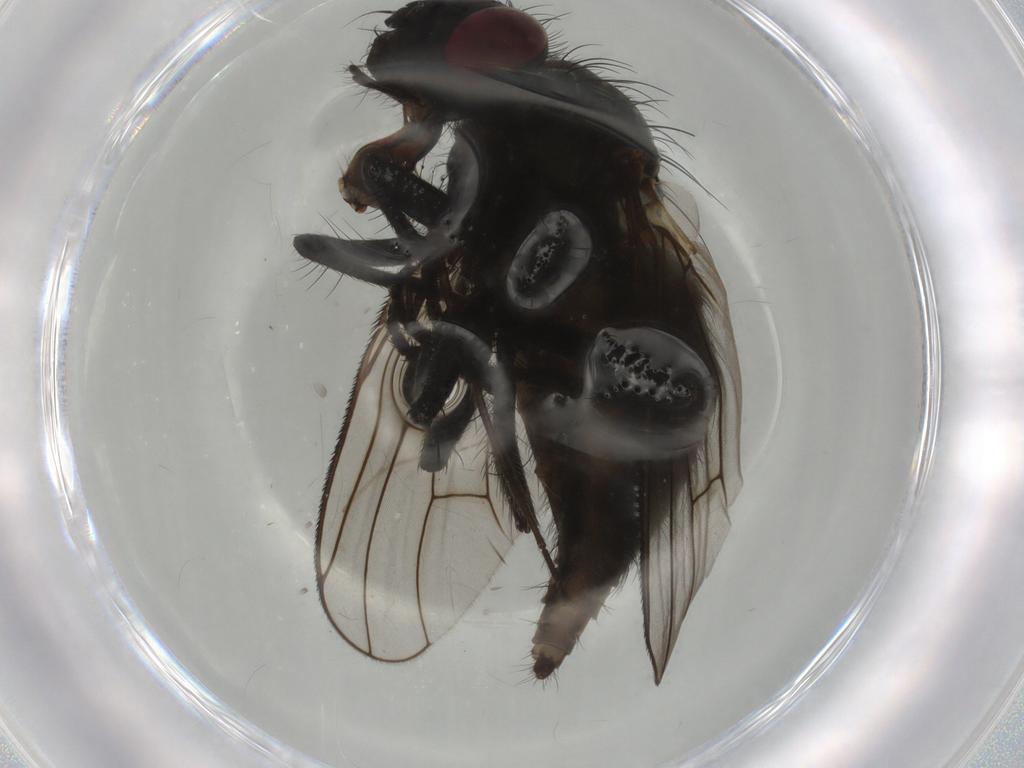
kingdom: Animalia
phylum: Arthropoda
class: Insecta
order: Diptera
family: Muscidae
